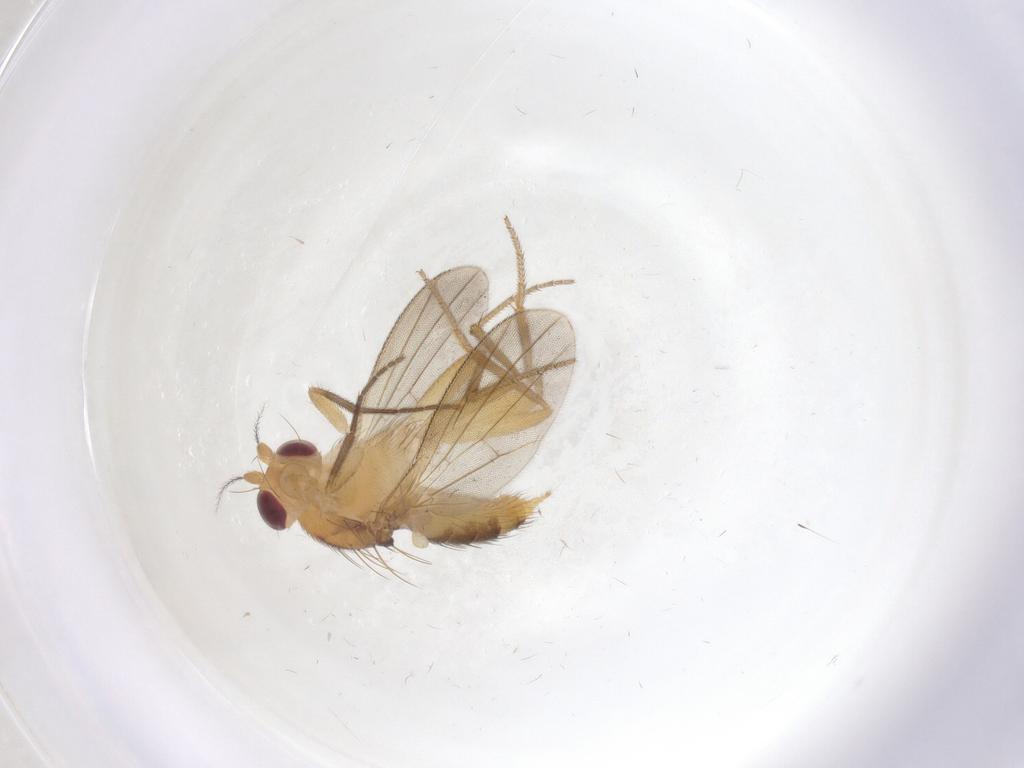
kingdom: Animalia
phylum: Arthropoda
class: Insecta
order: Diptera
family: Clusiidae
